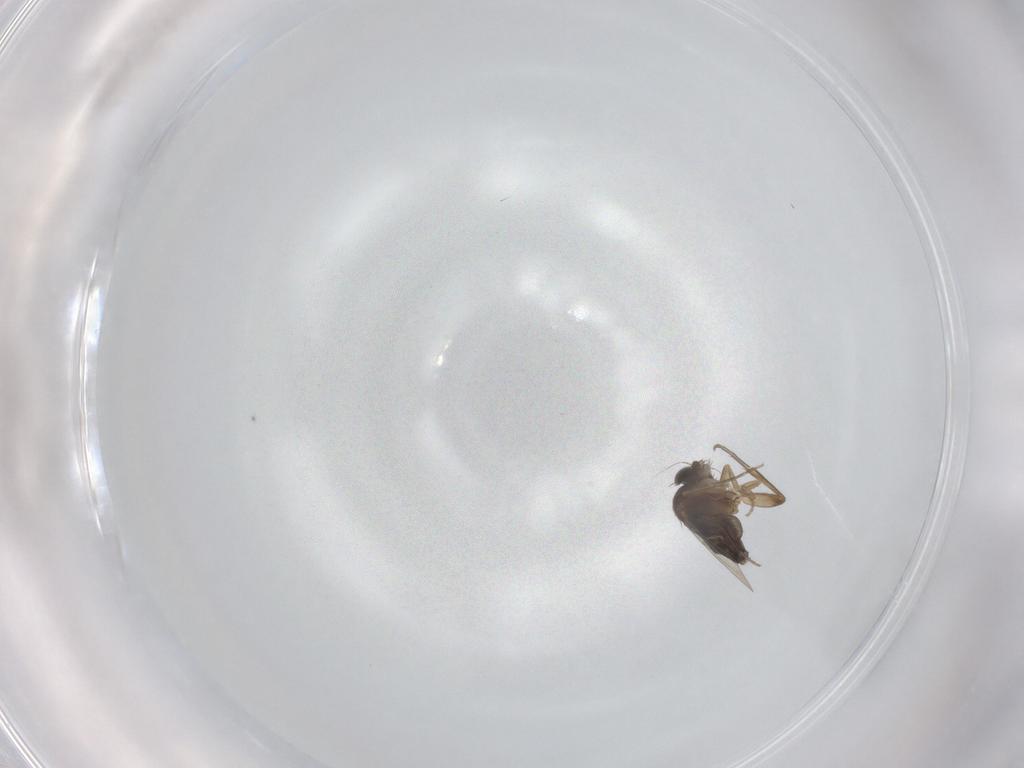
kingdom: Animalia
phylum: Arthropoda
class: Insecta
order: Diptera
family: Phoridae
